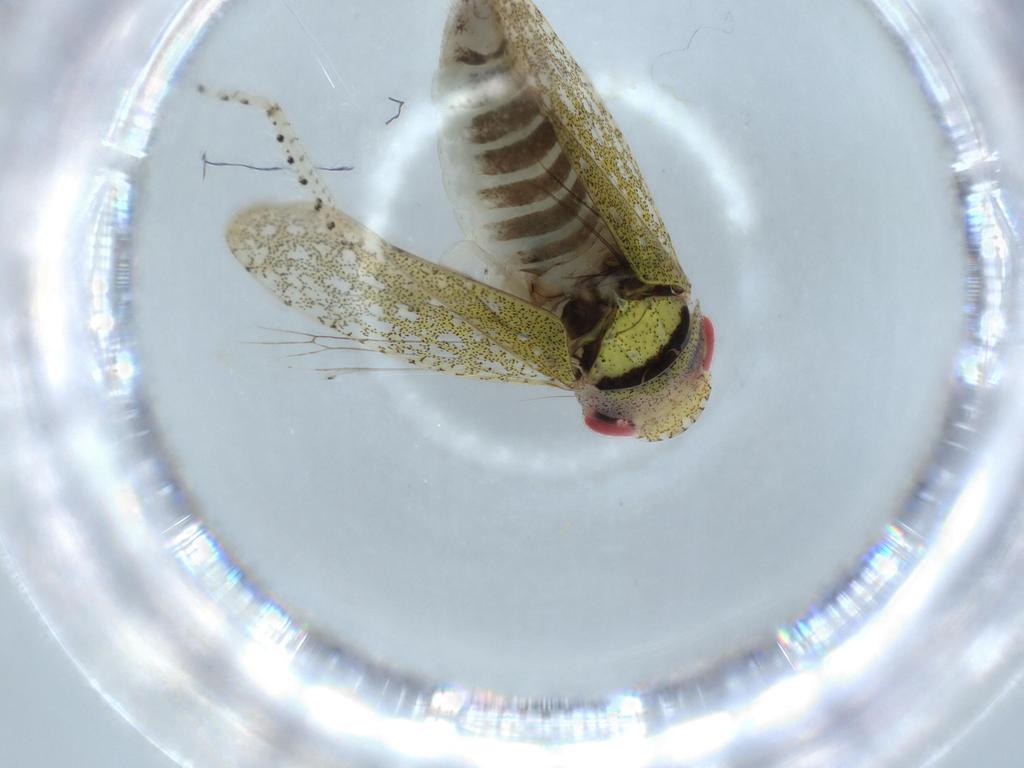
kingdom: Animalia
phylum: Arthropoda
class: Insecta
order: Hemiptera
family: Cicadellidae
